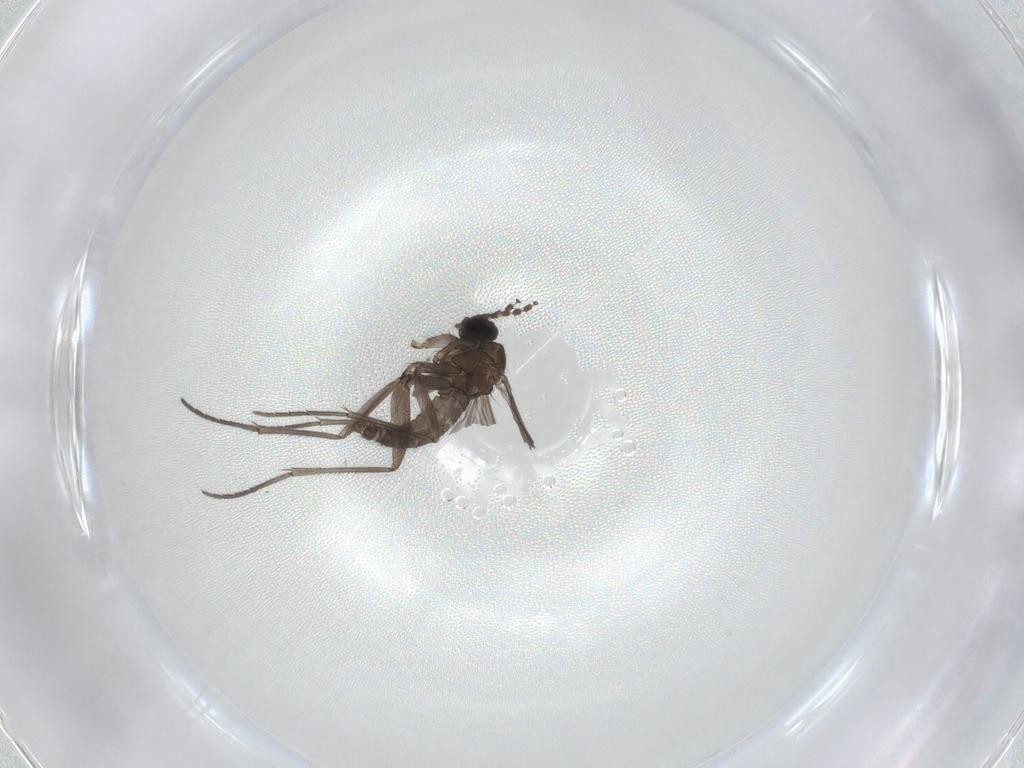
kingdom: Animalia
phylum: Arthropoda
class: Insecta
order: Diptera
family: Sciaridae
